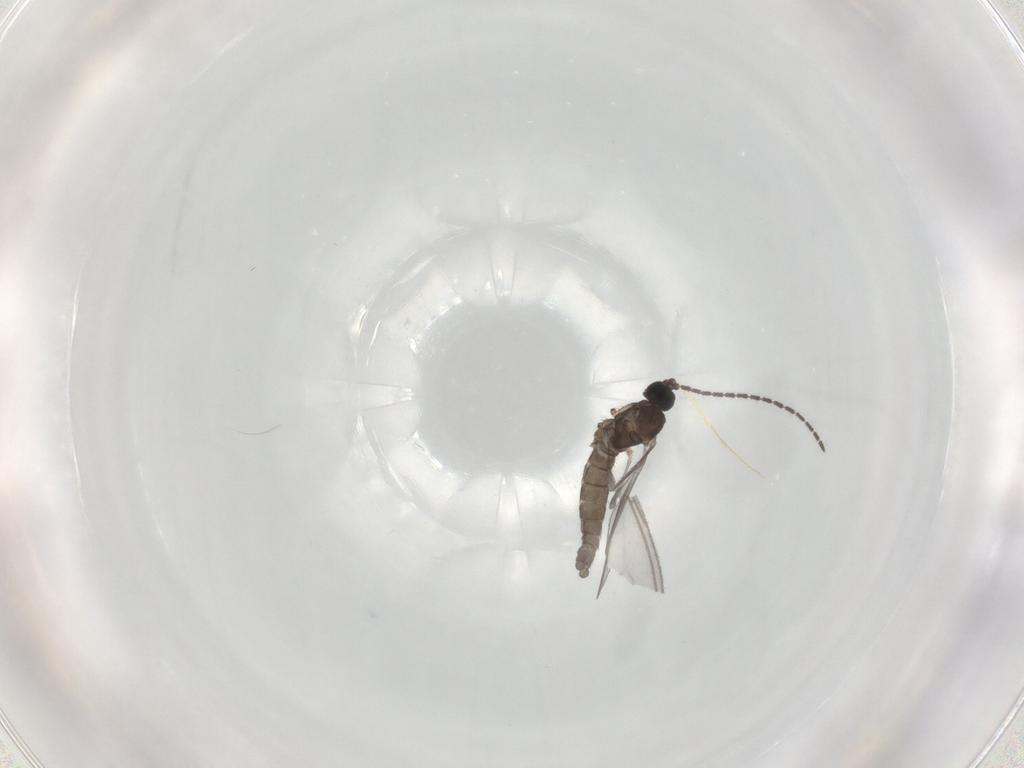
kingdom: Animalia
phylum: Arthropoda
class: Insecta
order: Diptera
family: Sciaridae
